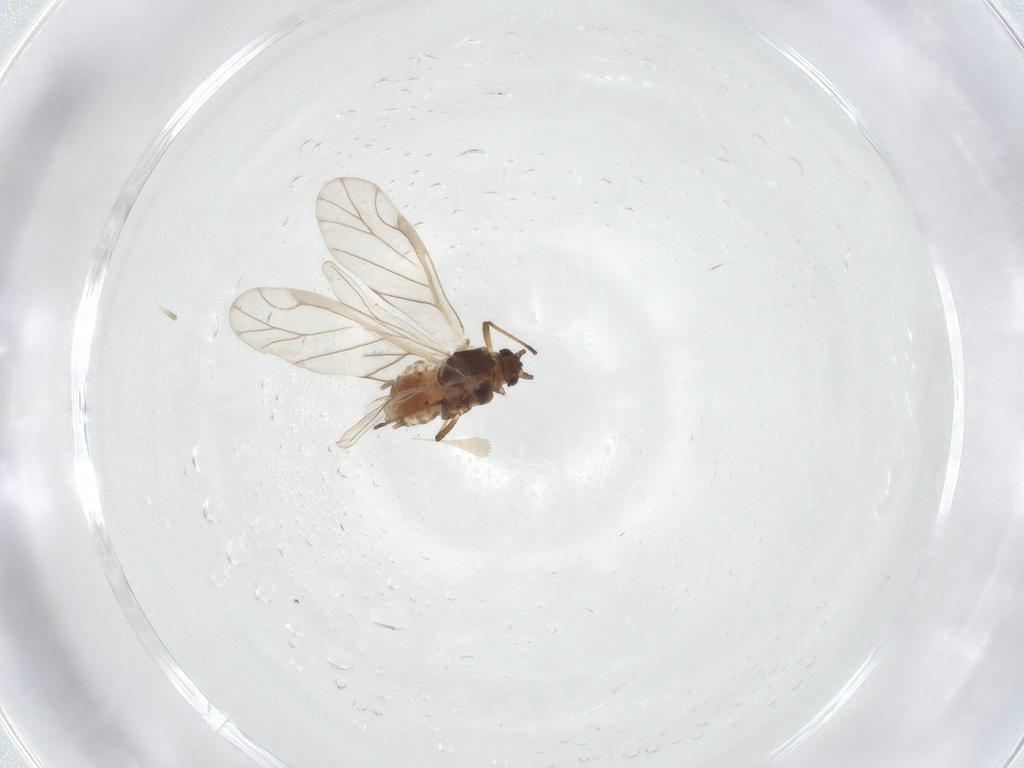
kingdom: Animalia
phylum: Arthropoda
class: Insecta
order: Hemiptera
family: Aphididae
